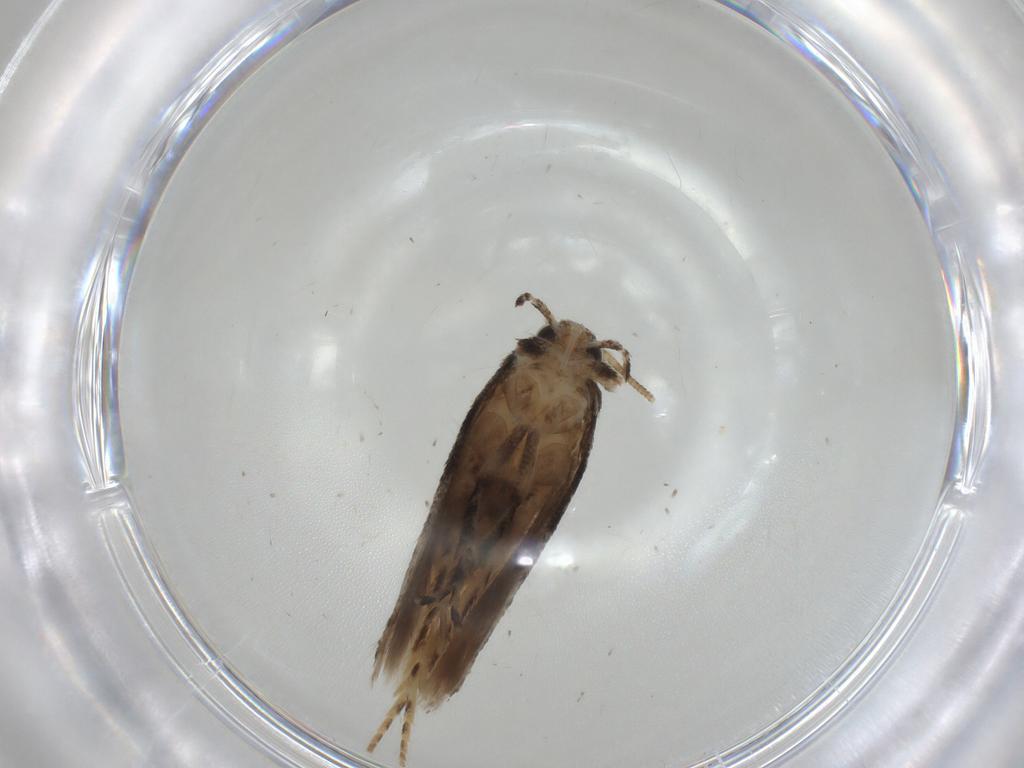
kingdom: Animalia
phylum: Arthropoda
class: Insecta
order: Lepidoptera
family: Gelechiidae
